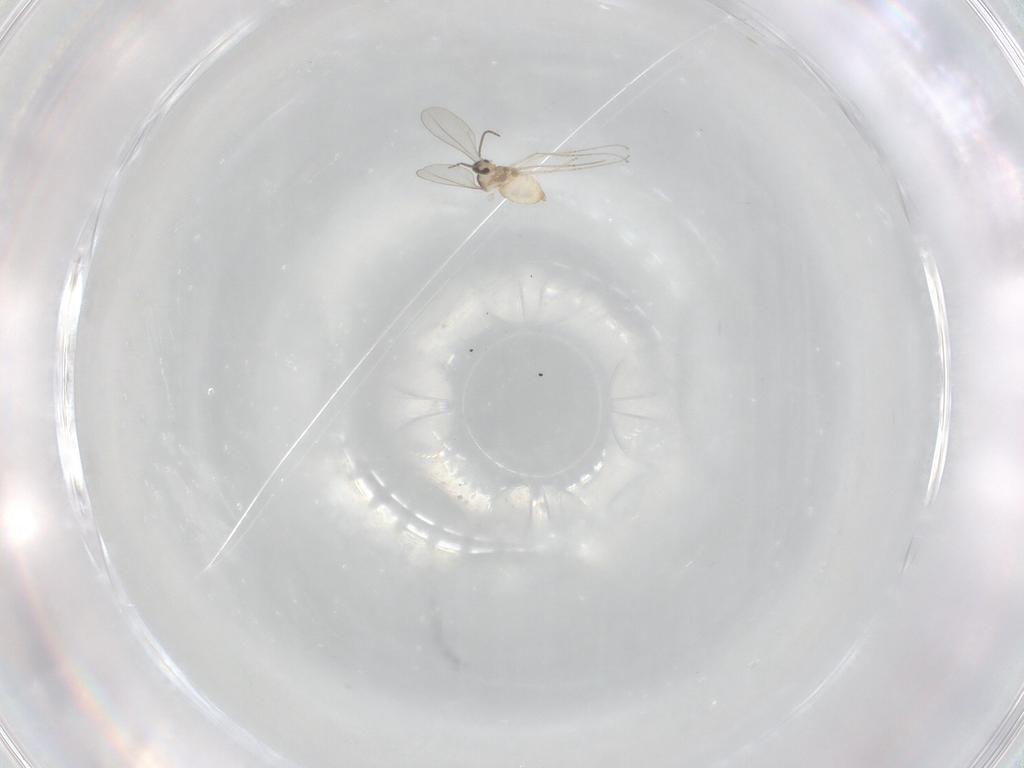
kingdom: Animalia
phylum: Arthropoda
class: Insecta
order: Diptera
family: Cecidomyiidae
